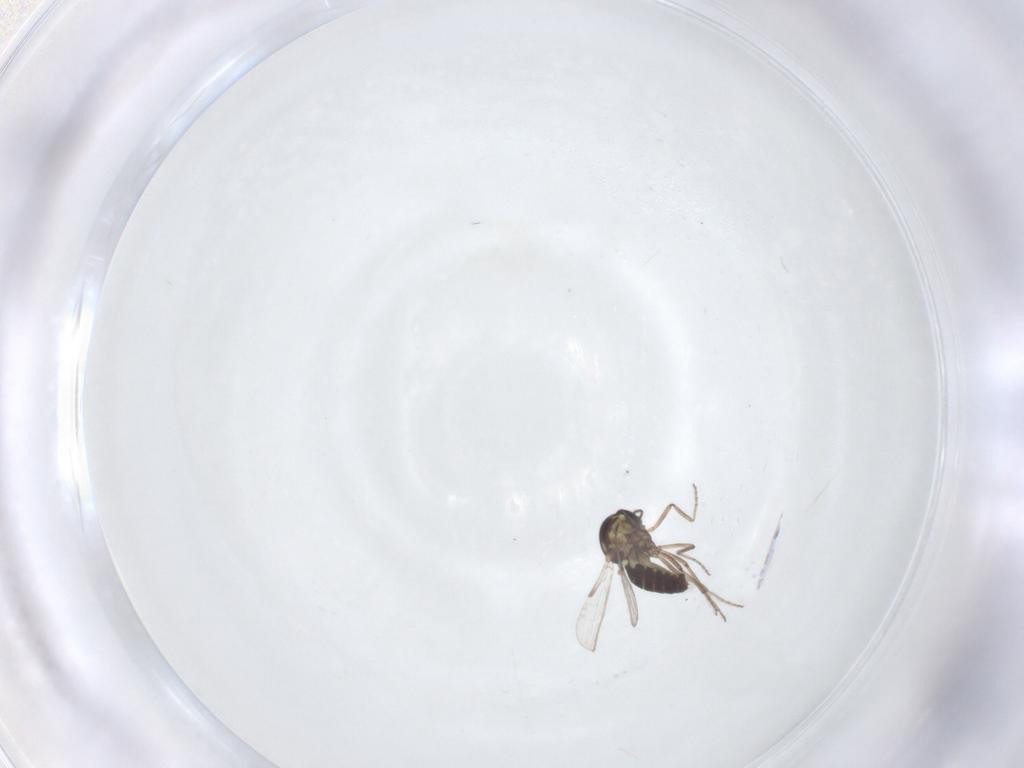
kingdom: Animalia
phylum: Arthropoda
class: Insecta
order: Diptera
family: Ceratopogonidae
